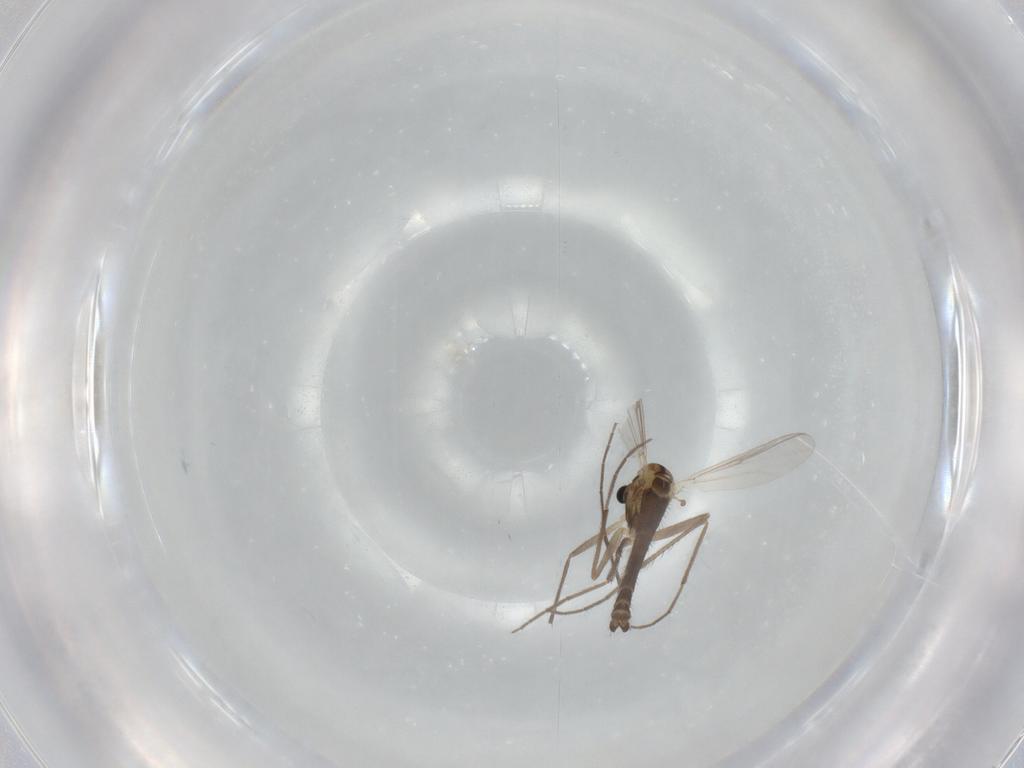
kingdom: Animalia
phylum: Arthropoda
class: Insecta
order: Diptera
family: Chironomidae
